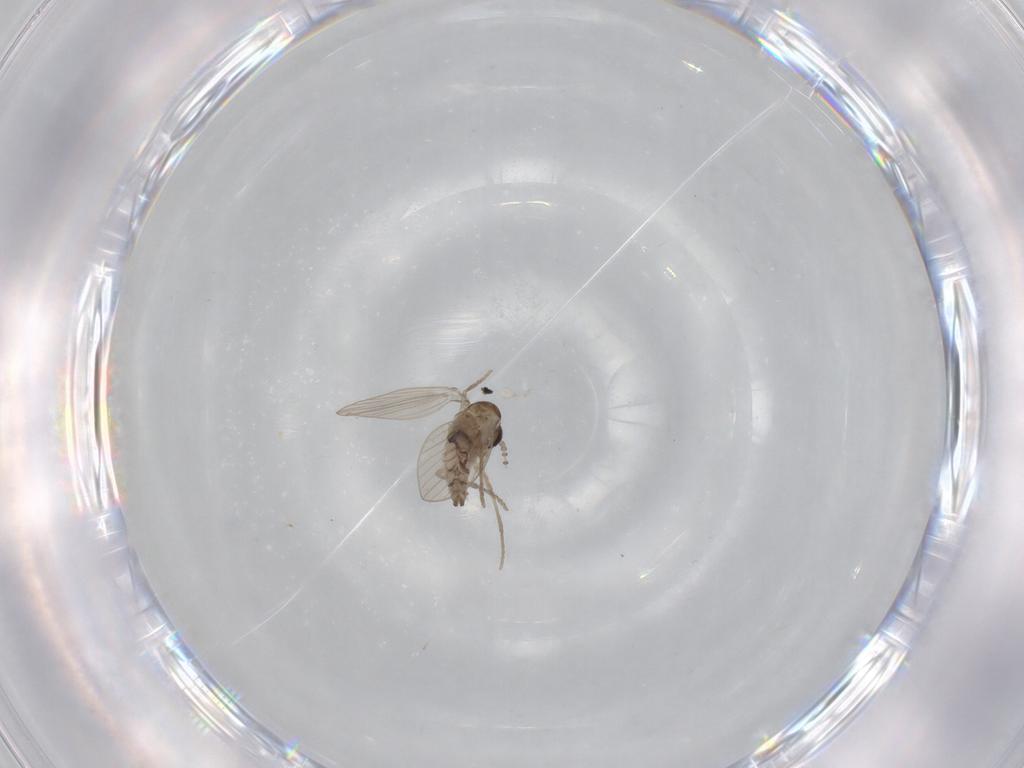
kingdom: Animalia
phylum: Arthropoda
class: Insecta
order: Diptera
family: Psychodidae
